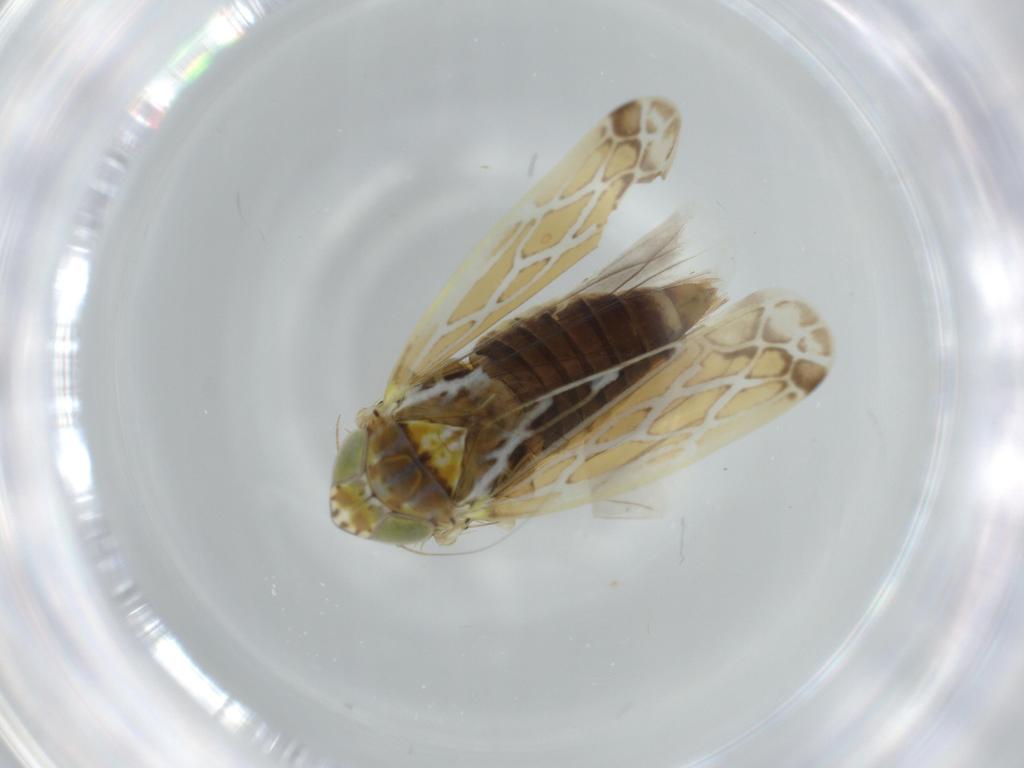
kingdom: Animalia
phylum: Arthropoda
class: Insecta
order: Hemiptera
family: Cicadellidae
